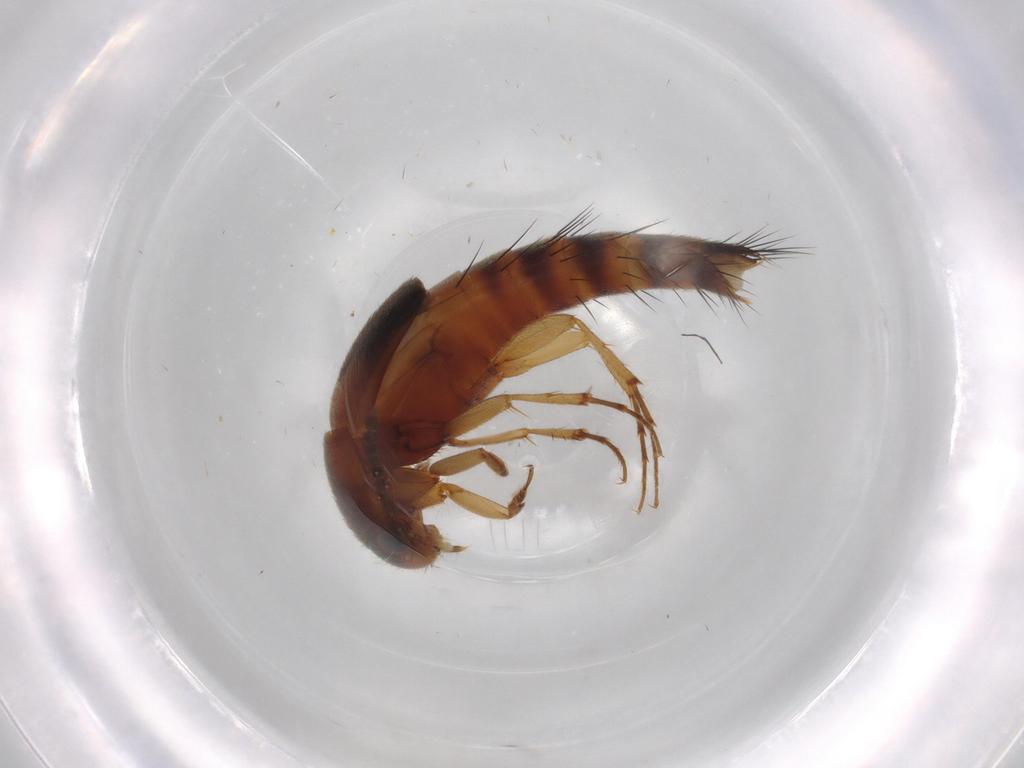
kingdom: Animalia
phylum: Arthropoda
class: Insecta
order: Coleoptera
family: Staphylinidae
